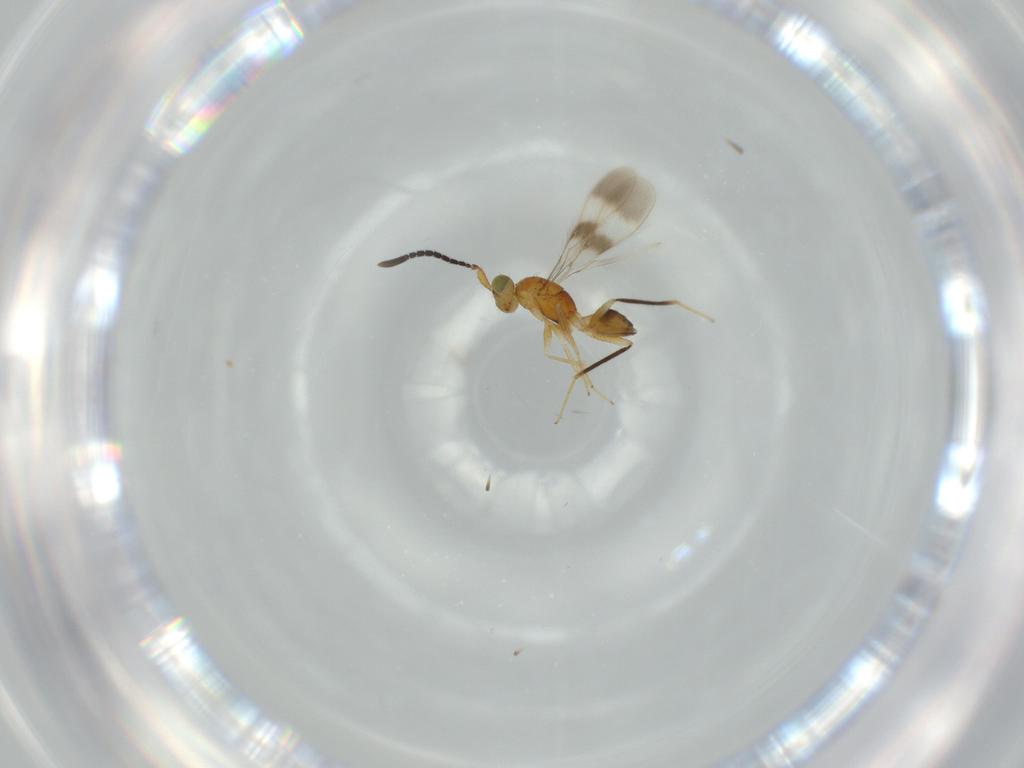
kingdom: Animalia
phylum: Arthropoda
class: Insecta
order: Hymenoptera
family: Mymaridae
